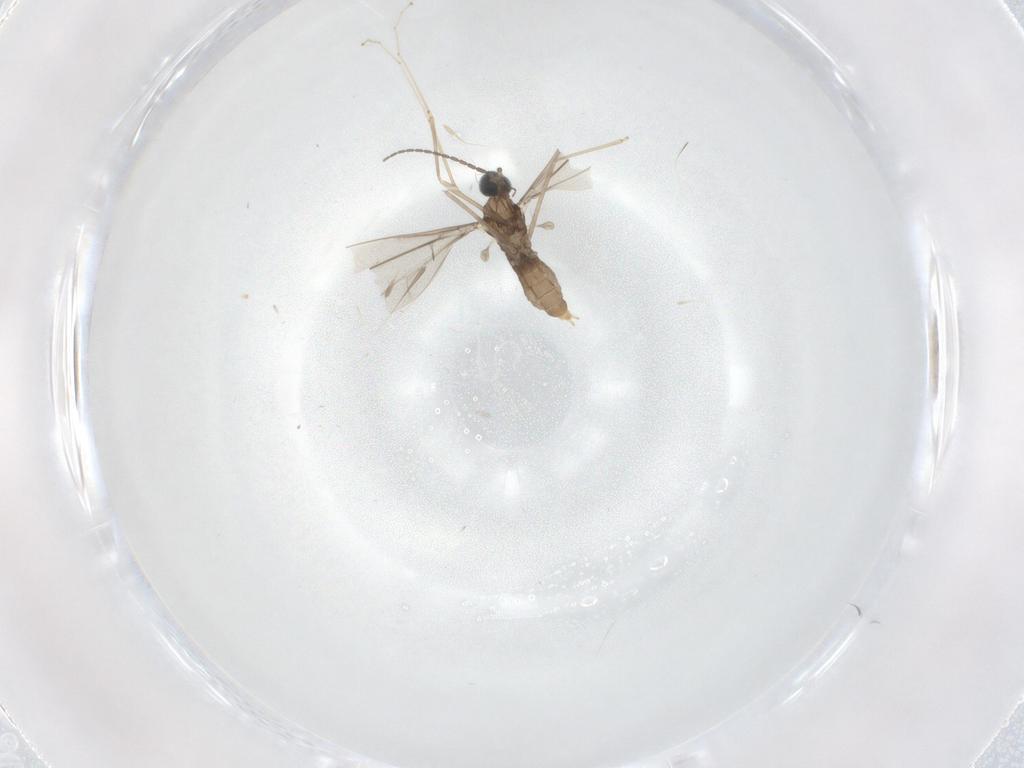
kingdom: Animalia
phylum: Arthropoda
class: Insecta
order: Diptera
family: Cecidomyiidae
